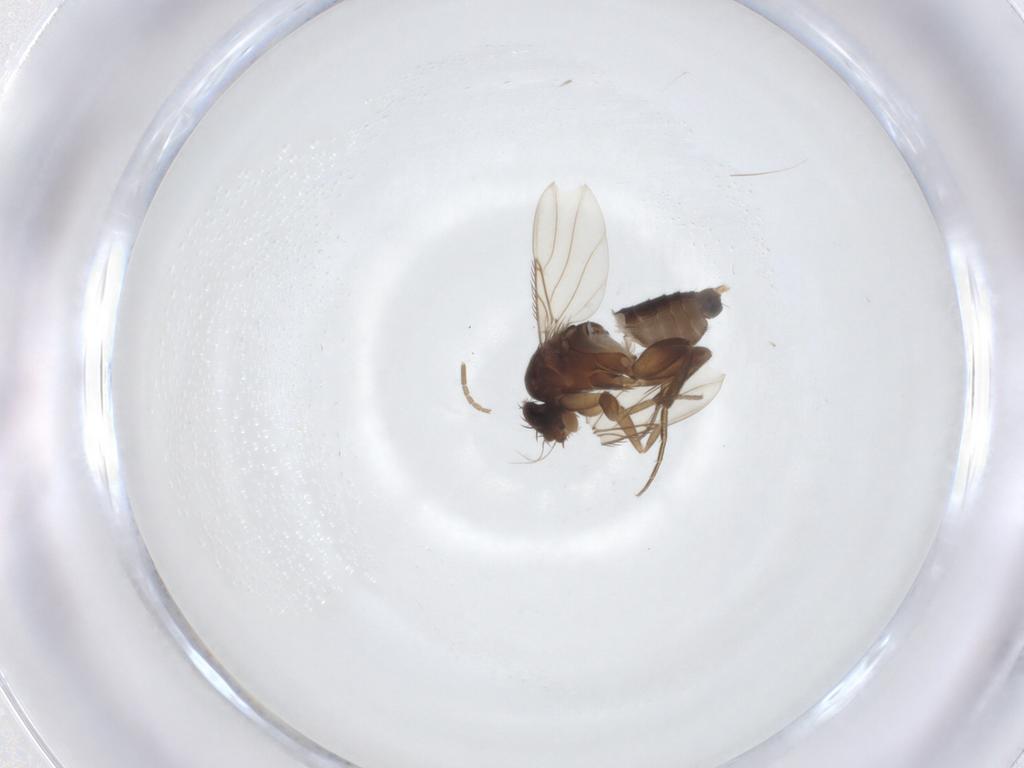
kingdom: Animalia
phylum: Arthropoda
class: Insecta
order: Diptera
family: Phoridae
